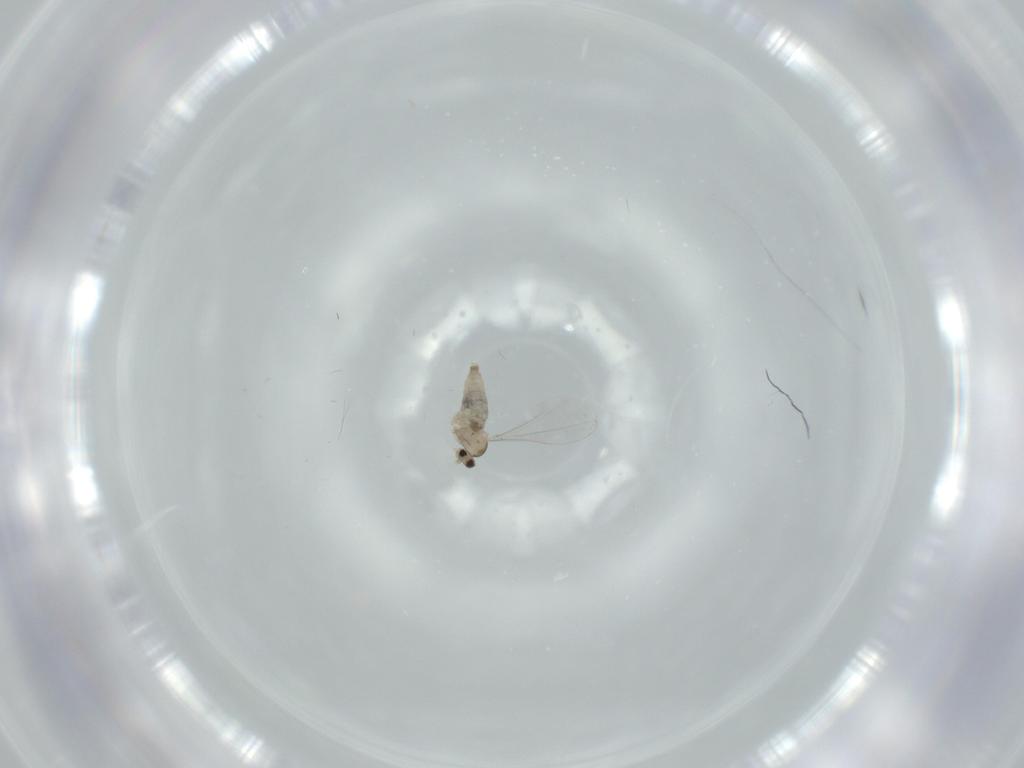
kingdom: Animalia
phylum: Arthropoda
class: Insecta
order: Diptera
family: Cecidomyiidae
